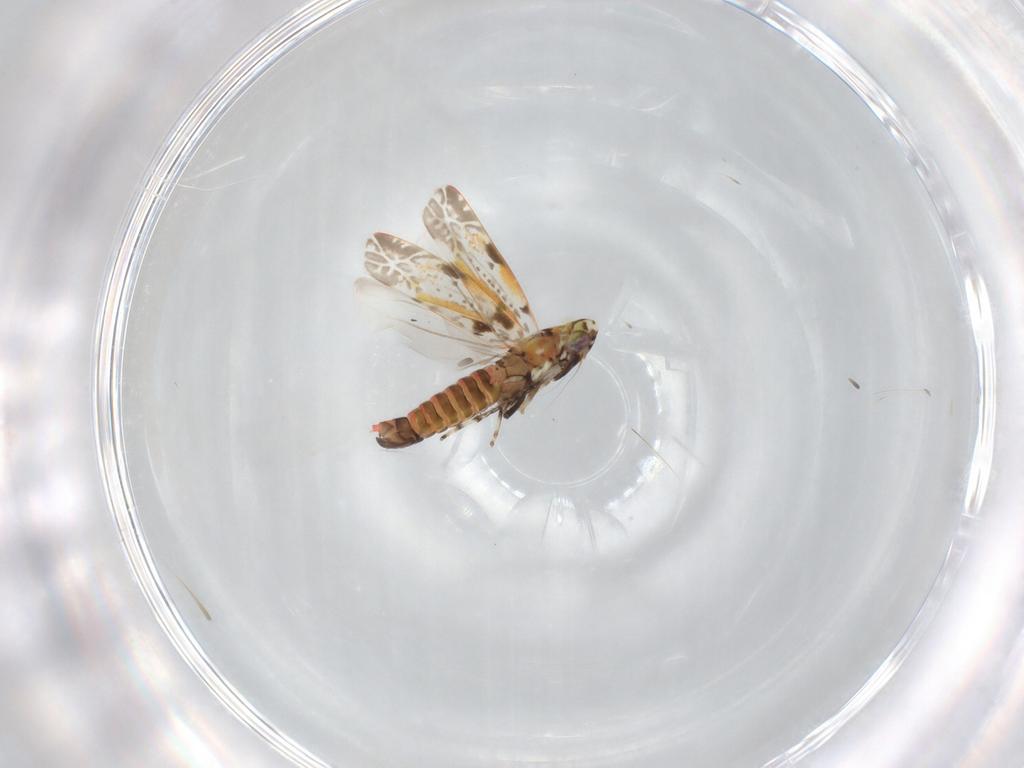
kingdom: Animalia
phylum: Arthropoda
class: Insecta
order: Hemiptera
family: Cicadellidae
